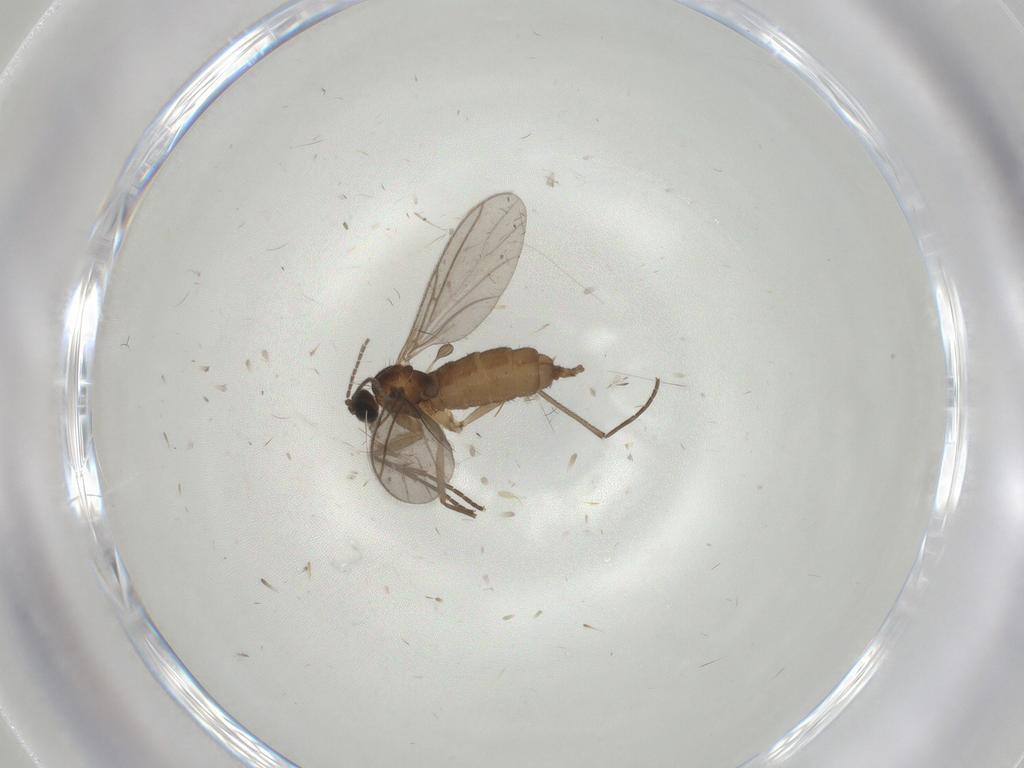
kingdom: Animalia
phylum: Arthropoda
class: Insecta
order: Diptera
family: Sciaridae
